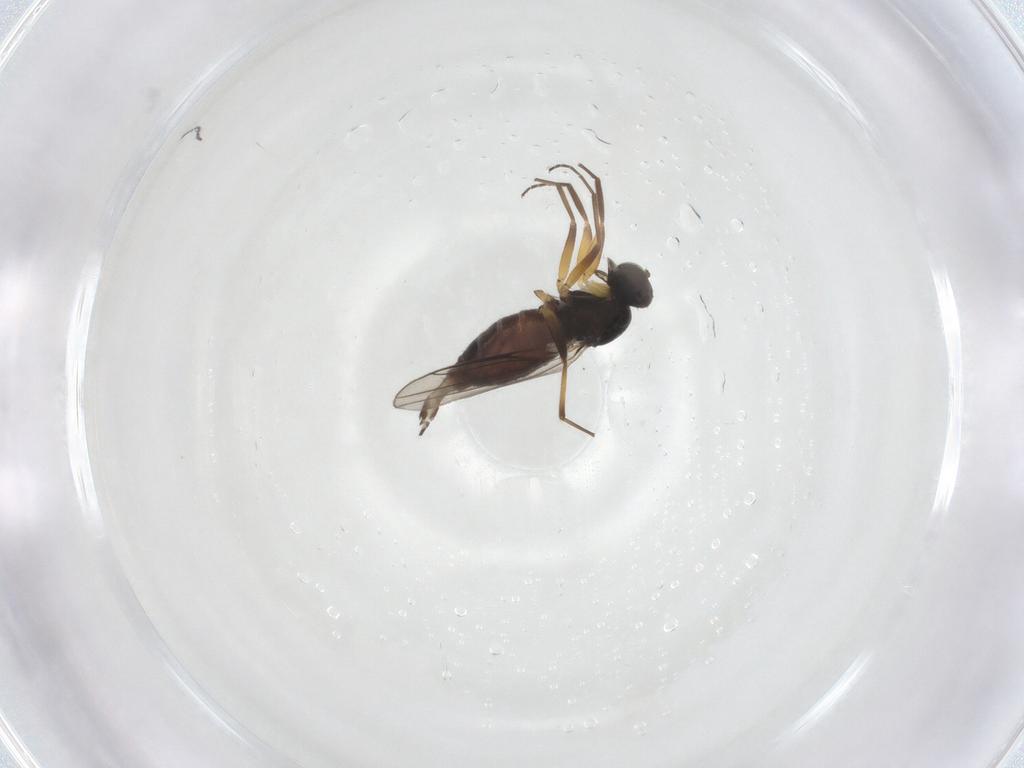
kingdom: Animalia
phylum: Arthropoda
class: Insecta
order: Diptera
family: Hybotidae
